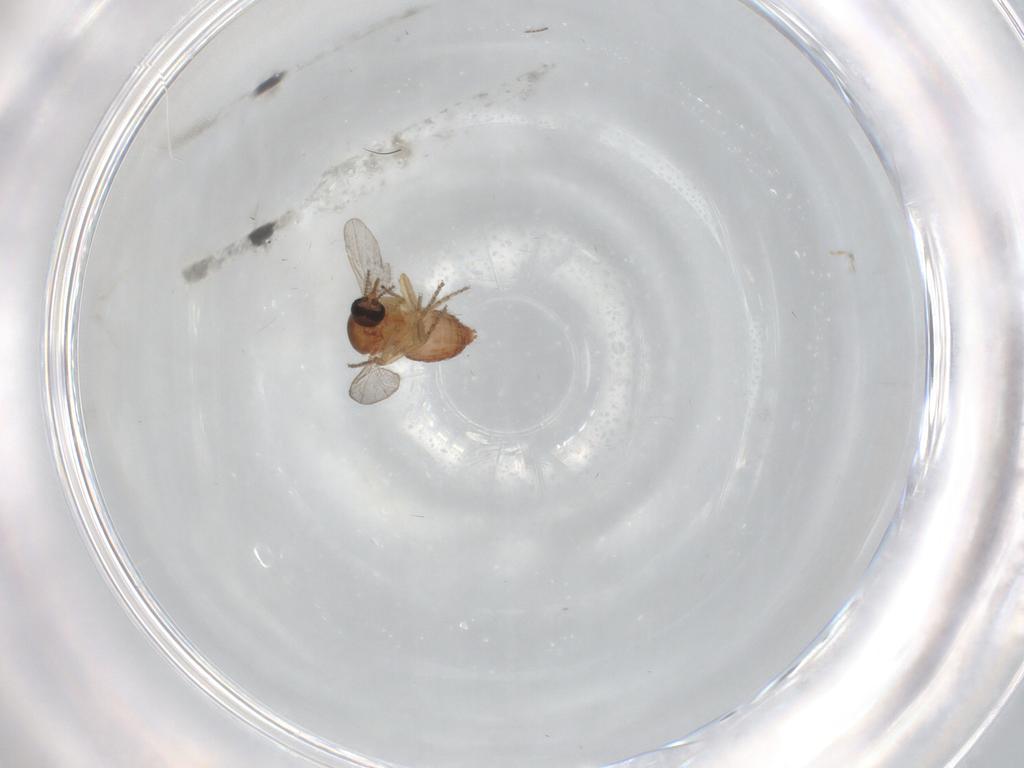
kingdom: Animalia
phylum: Arthropoda
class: Insecta
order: Diptera
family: Ceratopogonidae
